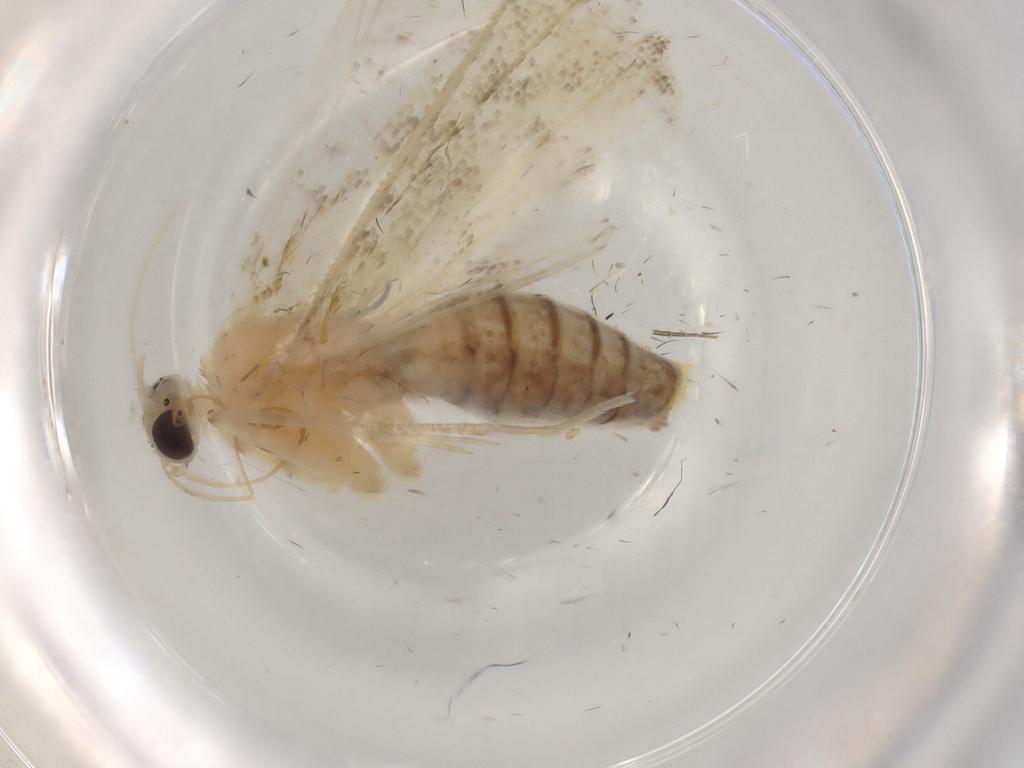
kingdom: Animalia
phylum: Arthropoda
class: Insecta
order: Lepidoptera
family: Crambidae
